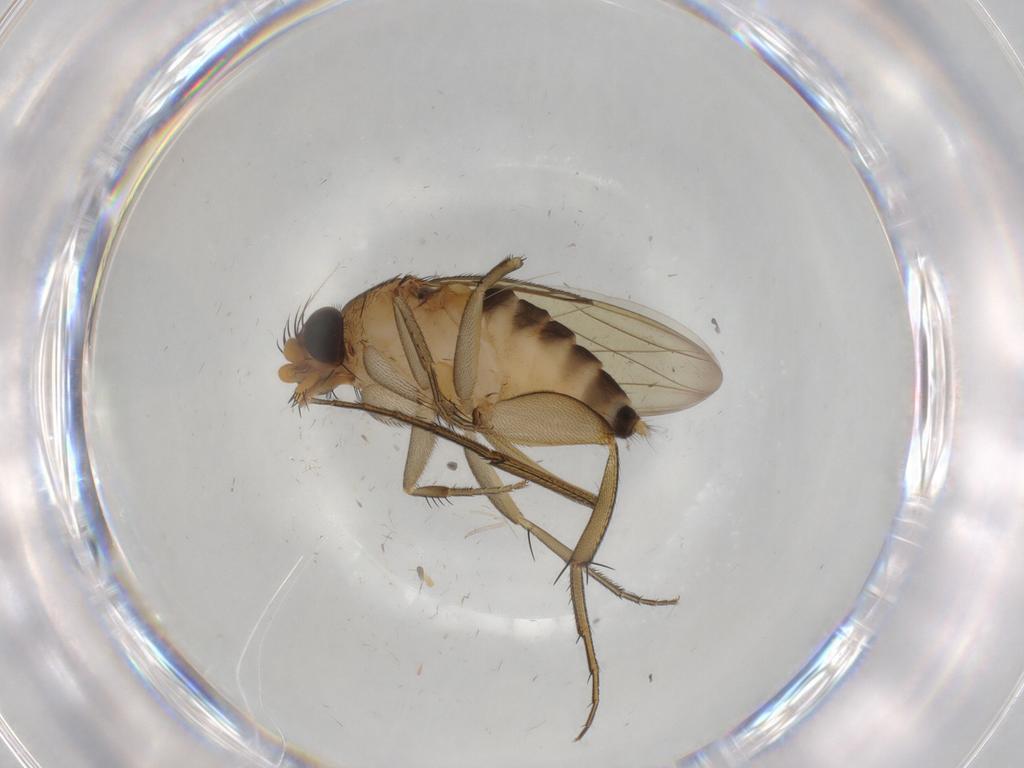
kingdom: Animalia
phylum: Arthropoda
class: Insecta
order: Diptera
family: Phoridae
